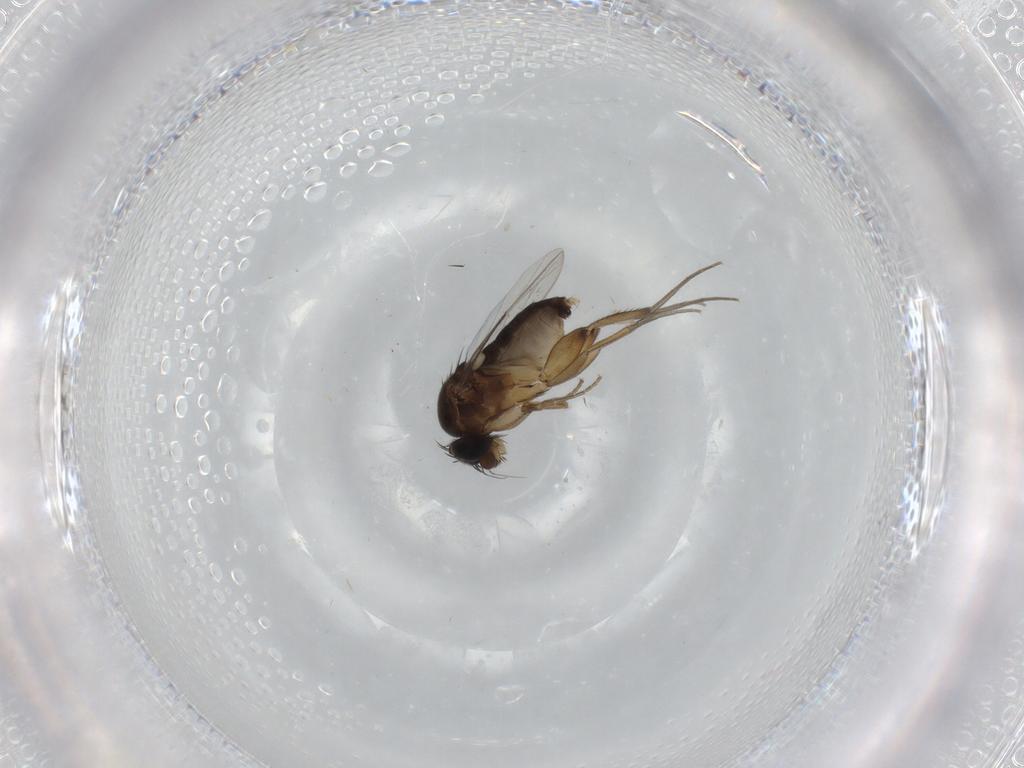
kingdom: Animalia
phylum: Arthropoda
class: Insecta
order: Diptera
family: Phoridae
